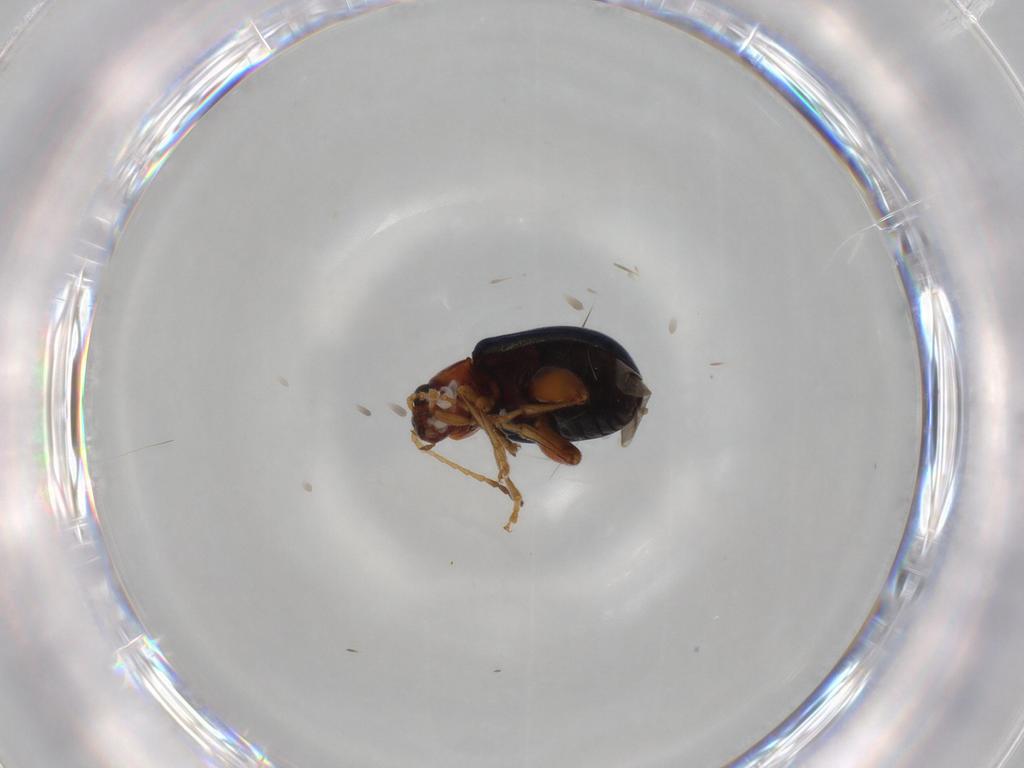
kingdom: Animalia
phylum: Arthropoda
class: Insecta
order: Coleoptera
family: Chrysomelidae
